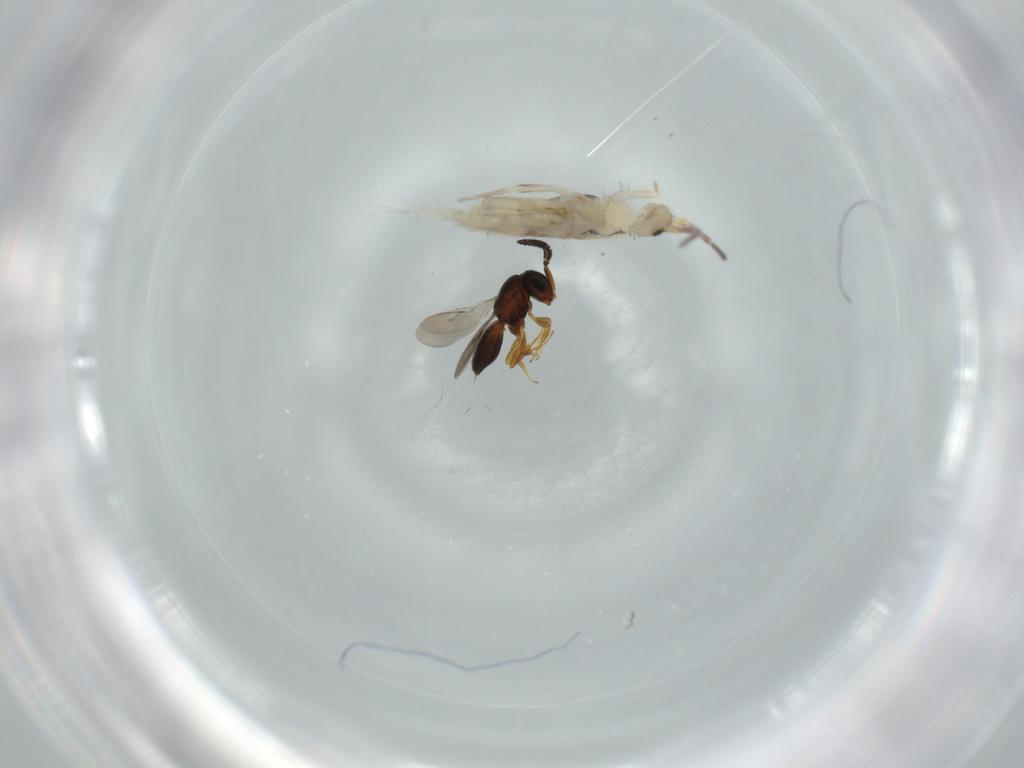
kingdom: Animalia
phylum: Arthropoda
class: Collembola
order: Entomobryomorpha
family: Entomobryidae
